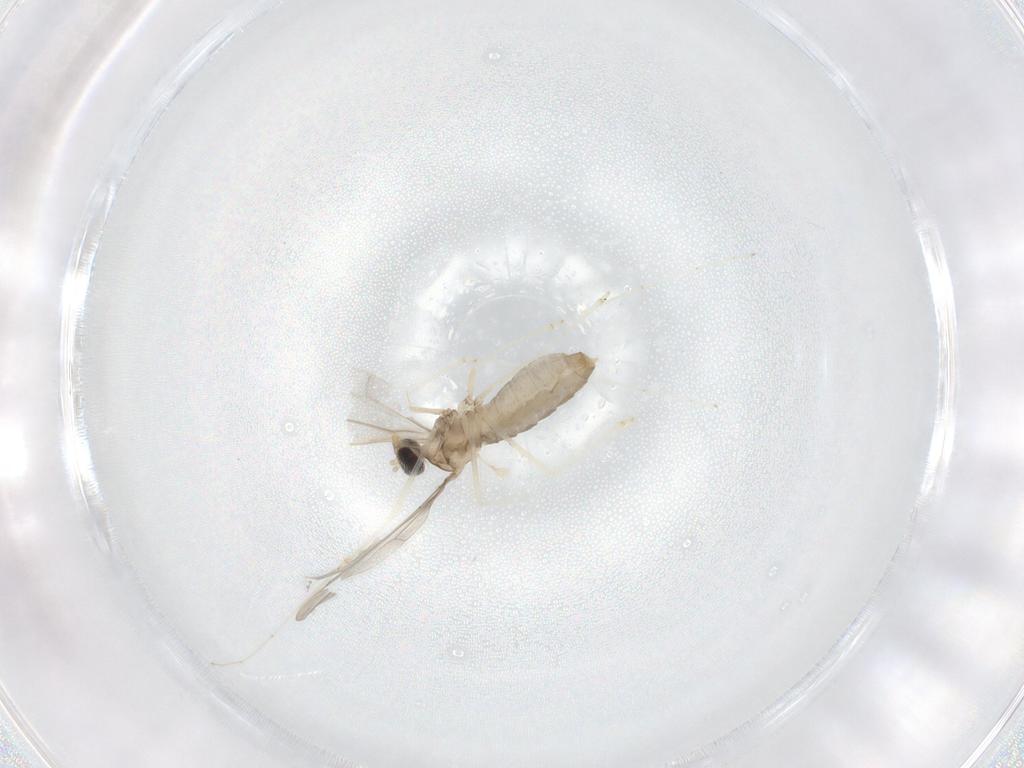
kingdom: Animalia
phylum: Arthropoda
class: Insecta
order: Diptera
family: Cecidomyiidae
